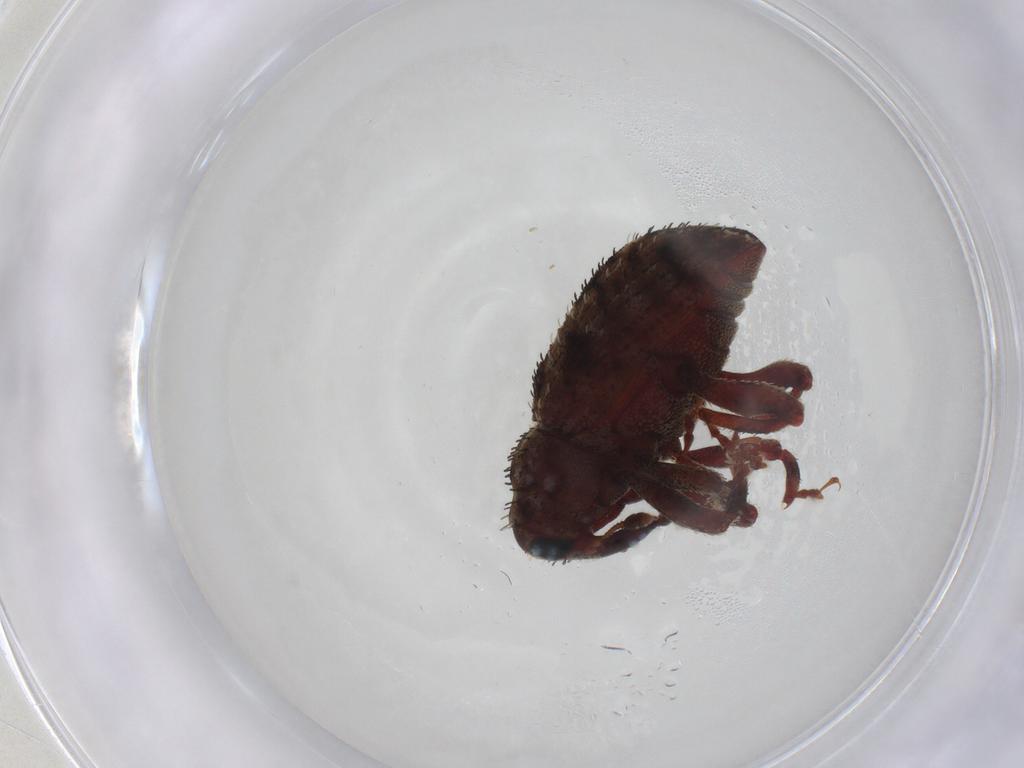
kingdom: Animalia
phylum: Arthropoda
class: Insecta
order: Coleoptera
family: Curculionidae
